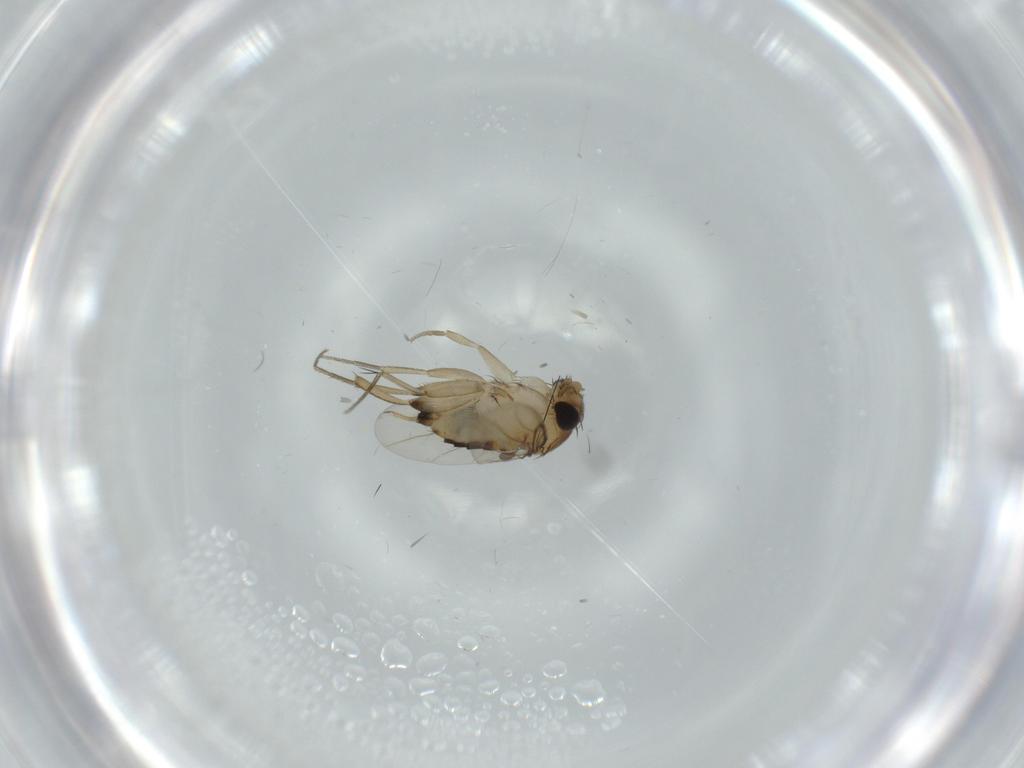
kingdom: Animalia
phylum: Arthropoda
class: Insecta
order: Diptera
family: Phoridae
